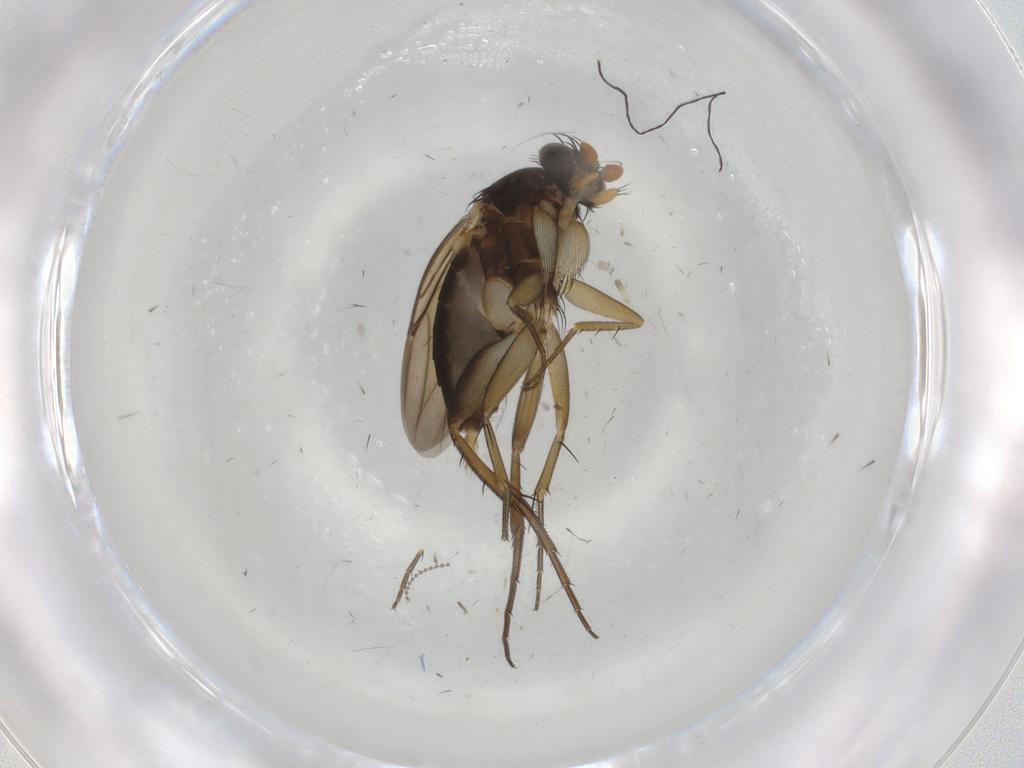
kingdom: Animalia
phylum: Arthropoda
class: Insecta
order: Diptera
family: Phoridae
